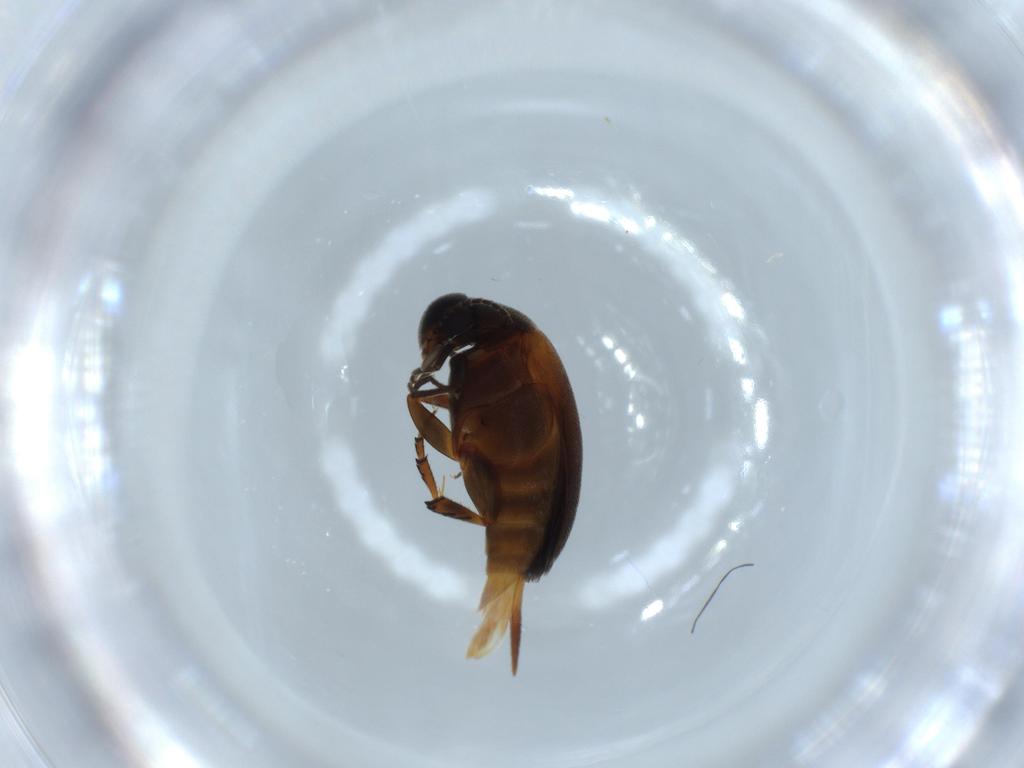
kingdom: Animalia
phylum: Arthropoda
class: Insecta
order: Coleoptera
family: Mordellidae
